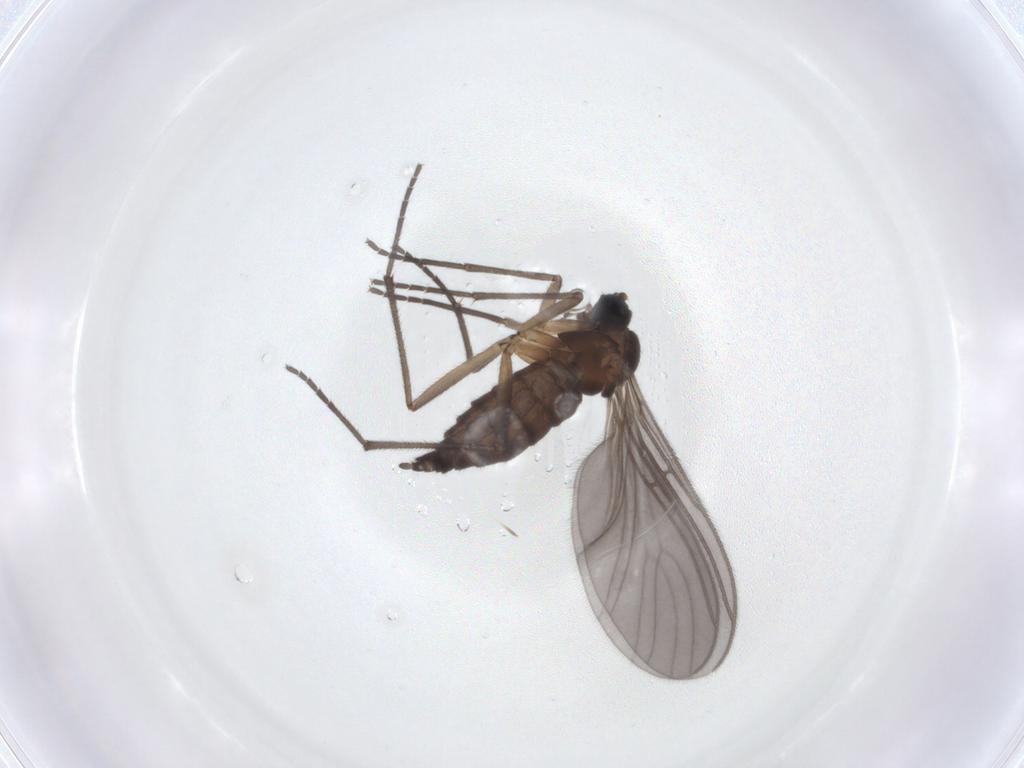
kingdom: Animalia
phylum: Arthropoda
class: Insecta
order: Diptera
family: Sciaridae
